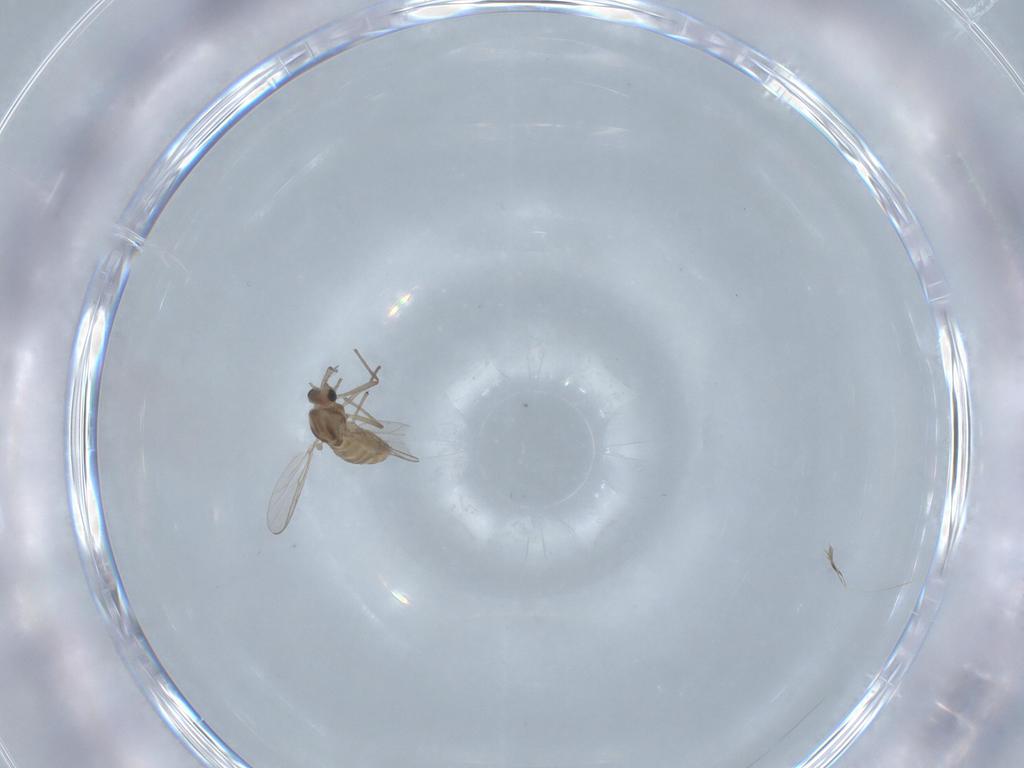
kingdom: Animalia
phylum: Arthropoda
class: Insecta
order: Diptera
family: Chironomidae
